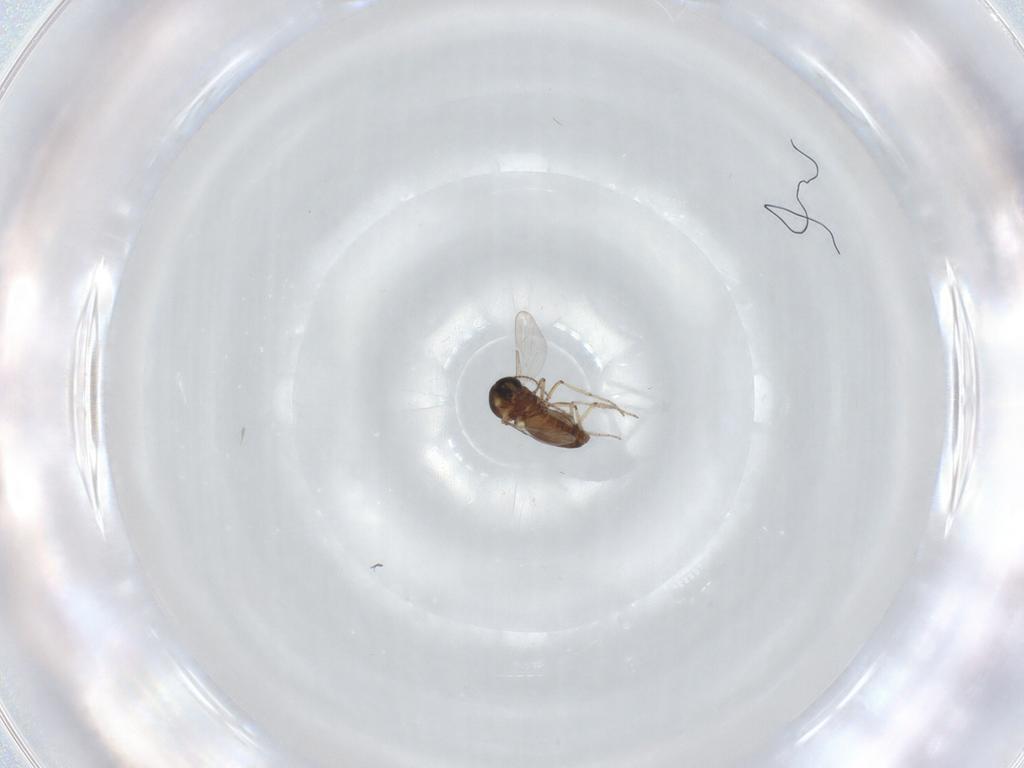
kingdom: Animalia
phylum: Arthropoda
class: Insecta
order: Diptera
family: Ceratopogonidae
